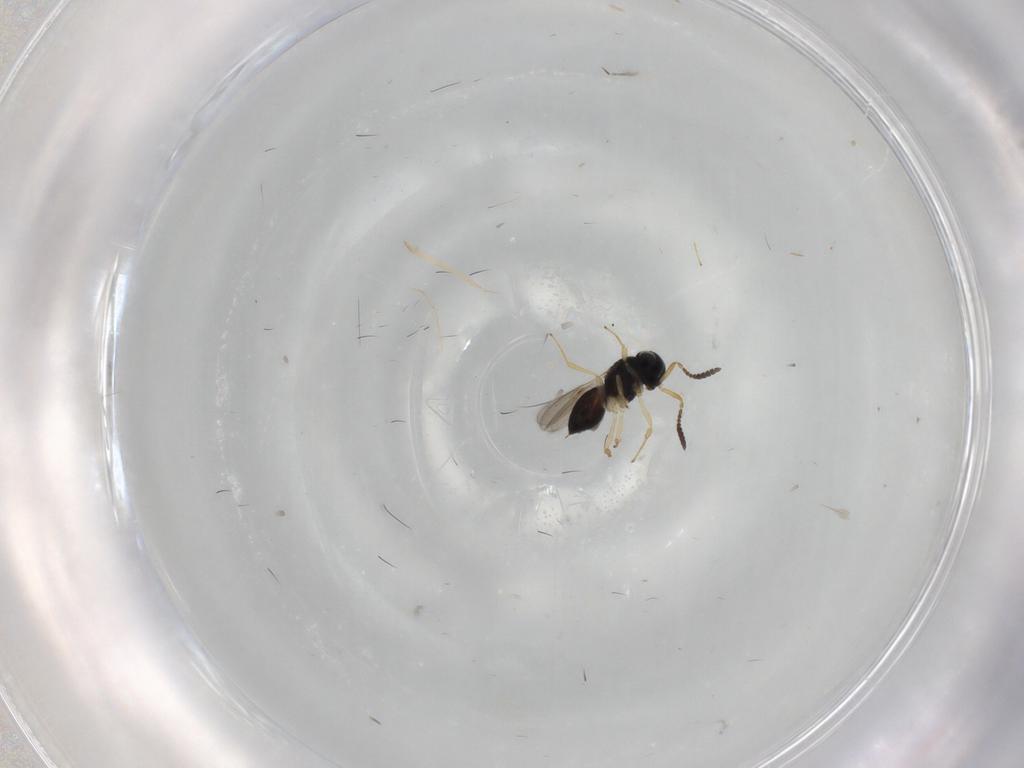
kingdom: Animalia
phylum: Arthropoda
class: Insecta
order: Hymenoptera
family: Scelionidae
